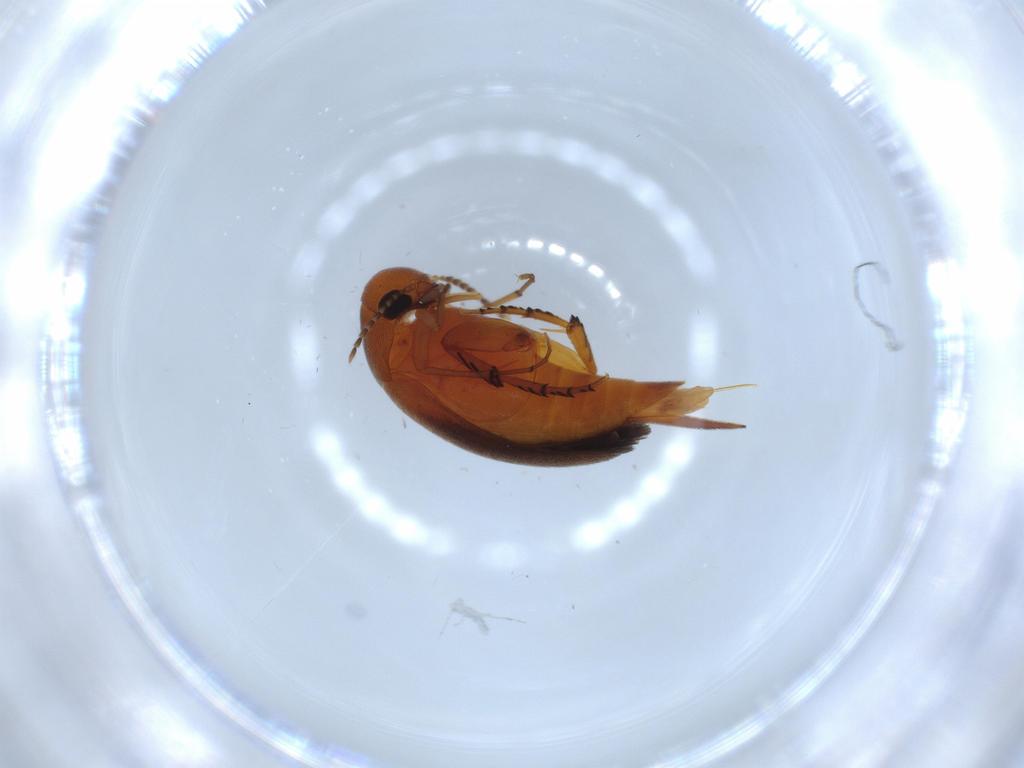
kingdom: Animalia
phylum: Arthropoda
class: Insecta
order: Coleoptera
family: Mordellidae
